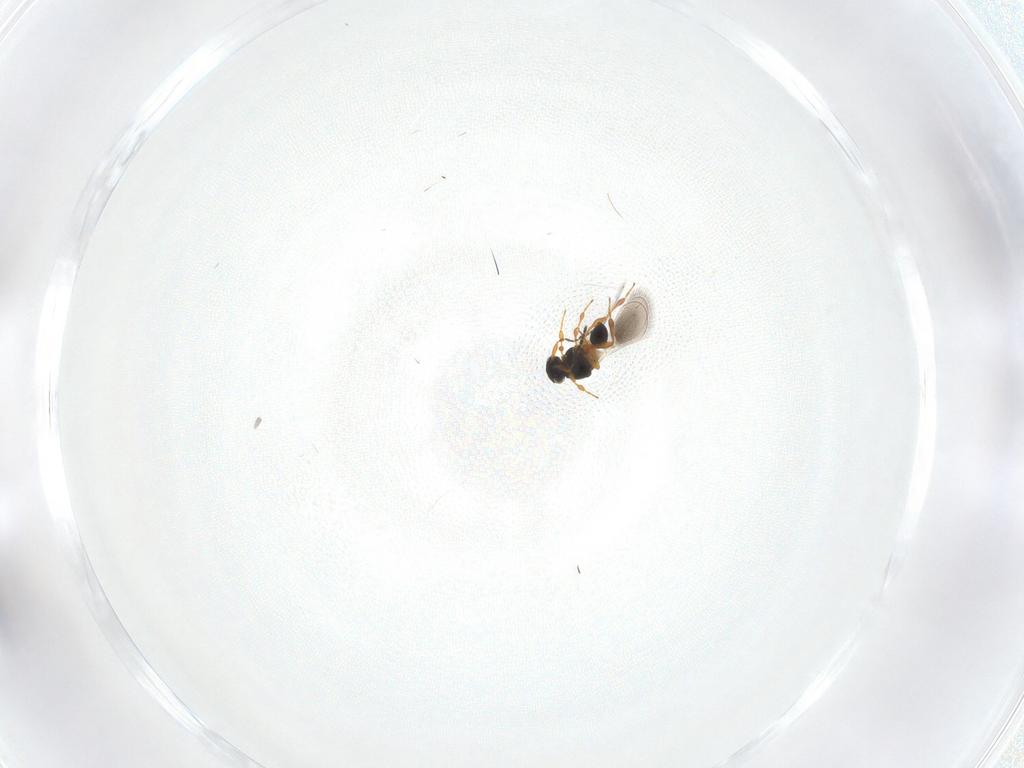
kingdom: Animalia
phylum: Arthropoda
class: Insecta
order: Hymenoptera
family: Platygastridae
